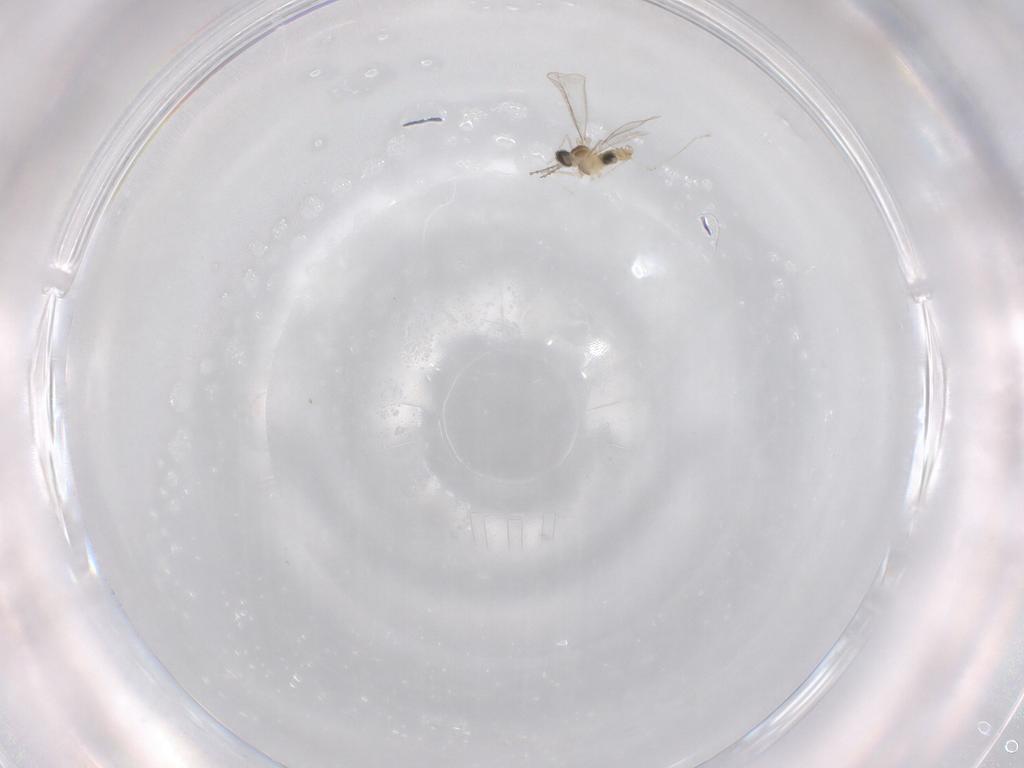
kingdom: Animalia
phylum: Arthropoda
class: Insecta
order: Diptera
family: Cecidomyiidae
